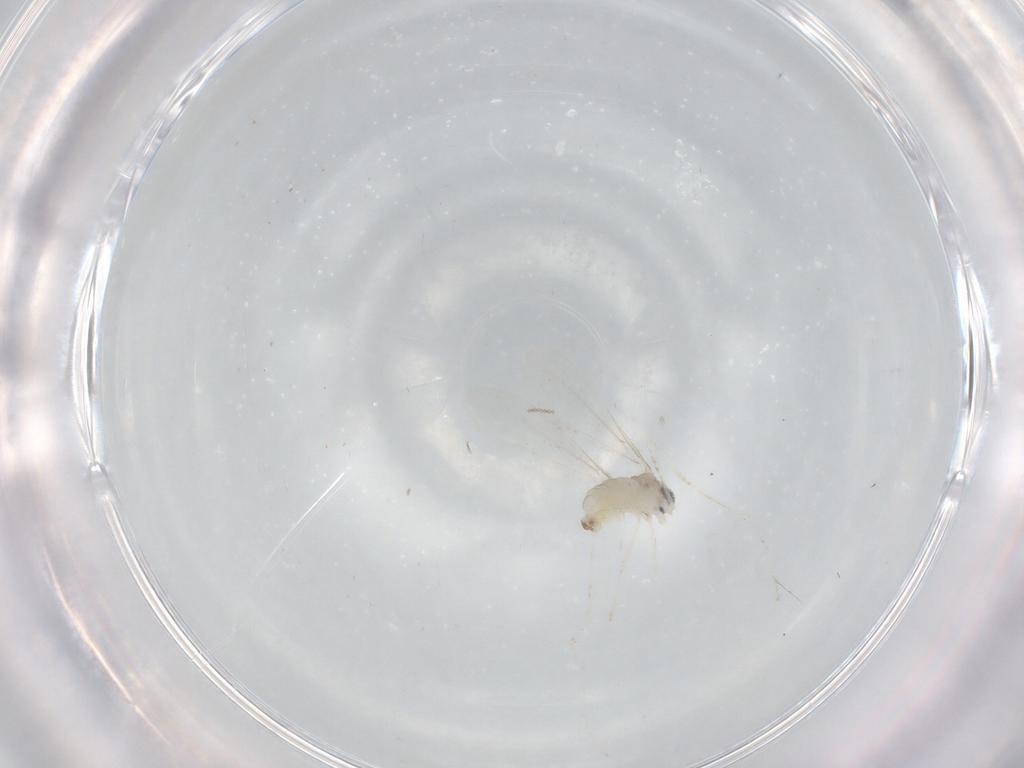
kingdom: Animalia
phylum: Arthropoda
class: Insecta
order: Diptera
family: Cecidomyiidae
